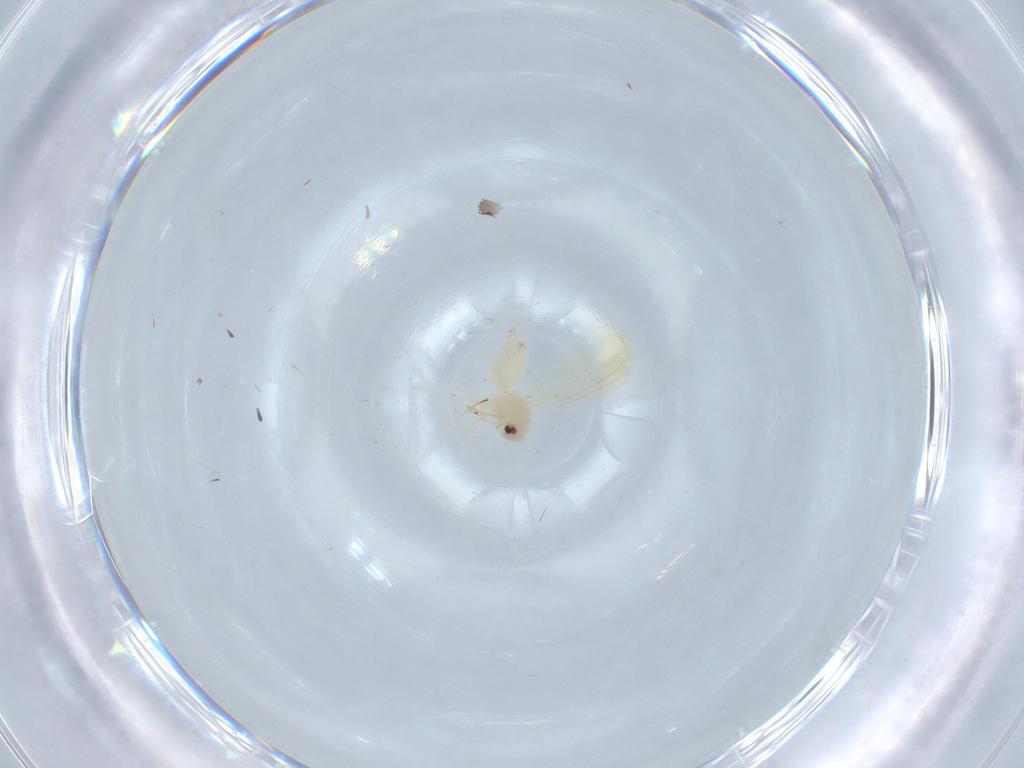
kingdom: Animalia
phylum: Arthropoda
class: Insecta
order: Hemiptera
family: Aleyrodidae
